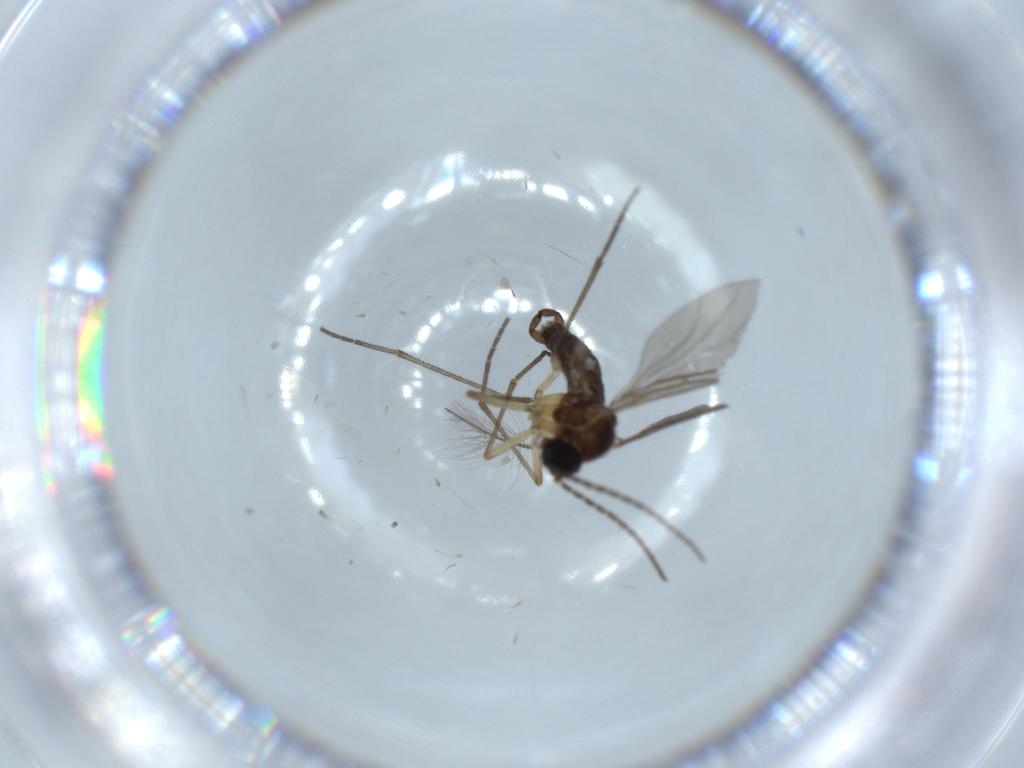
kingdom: Animalia
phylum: Arthropoda
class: Insecta
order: Diptera
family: Sciaridae
